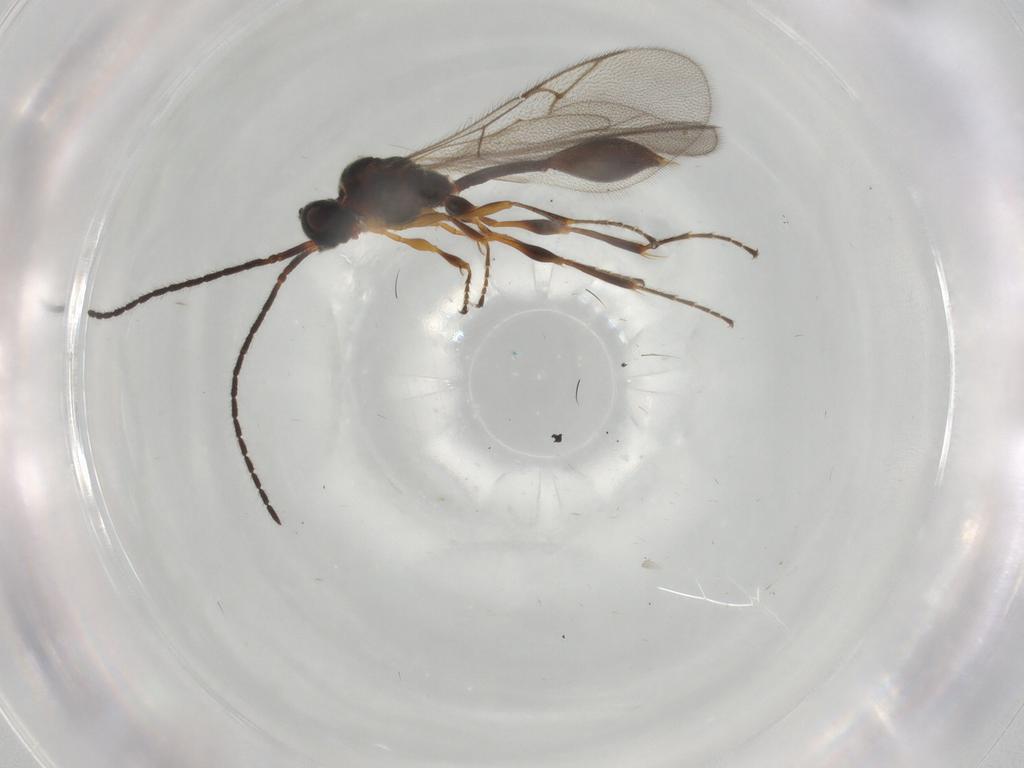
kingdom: Animalia
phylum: Arthropoda
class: Insecta
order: Hymenoptera
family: Diapriidae
